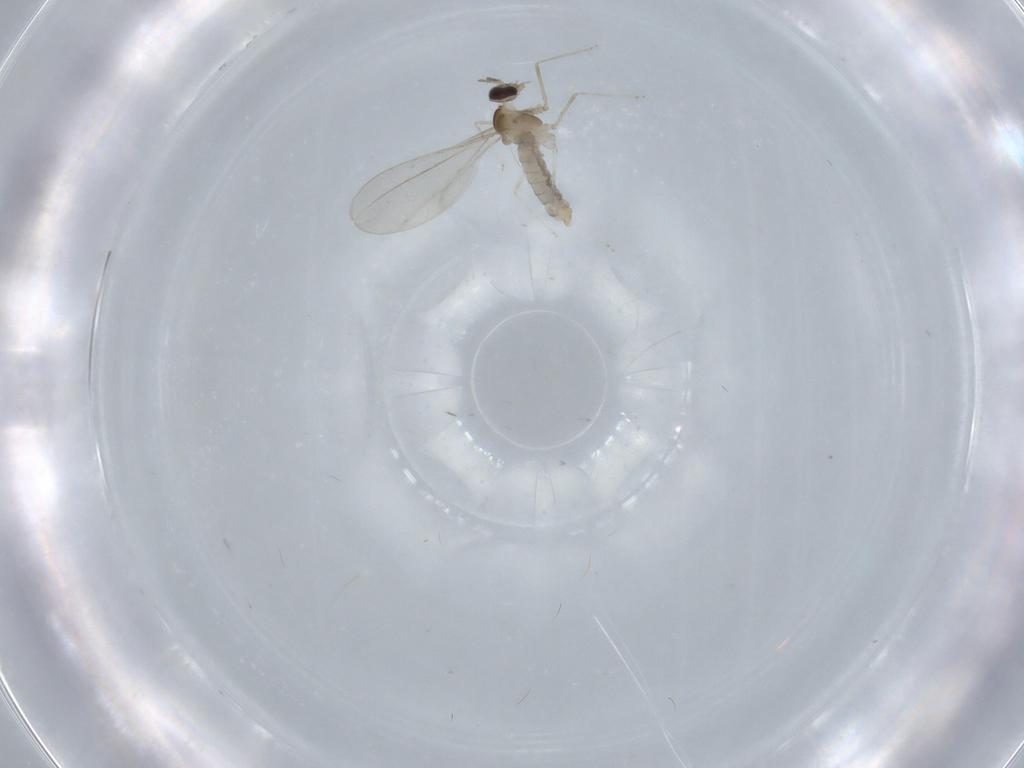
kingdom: Animalia
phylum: Arthropoda
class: Insecta
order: Diptera
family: Cecidomyiidae
